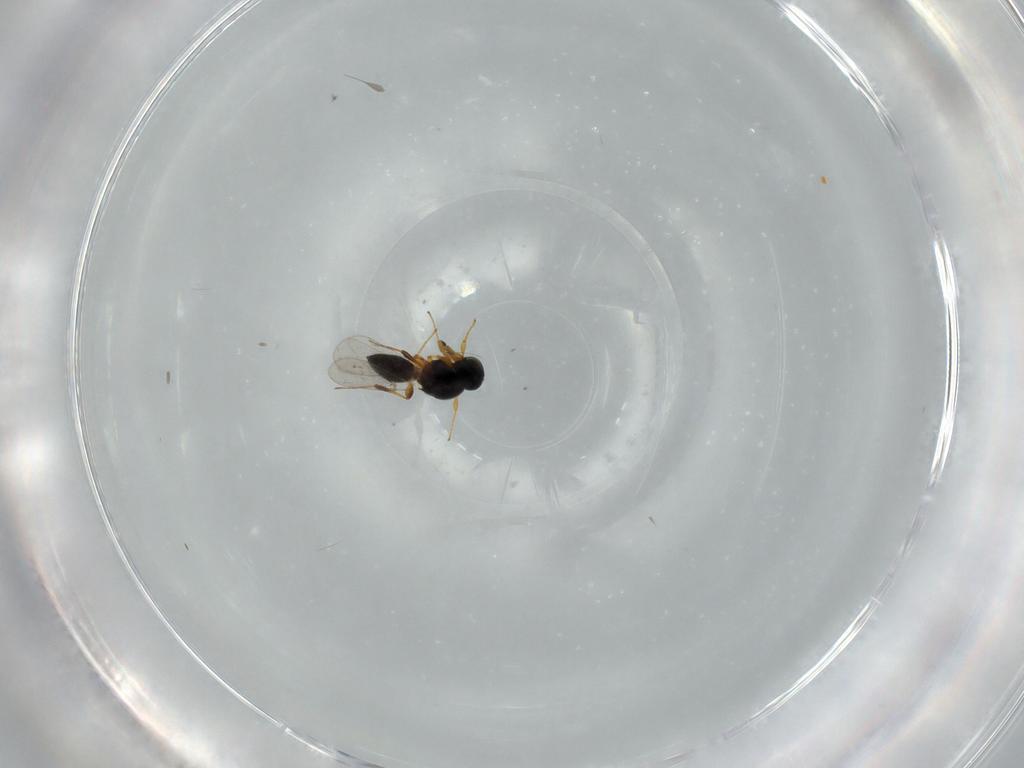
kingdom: Animalia
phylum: Arthropoda
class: Insecta
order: Hymenoptera
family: Platygastridae
